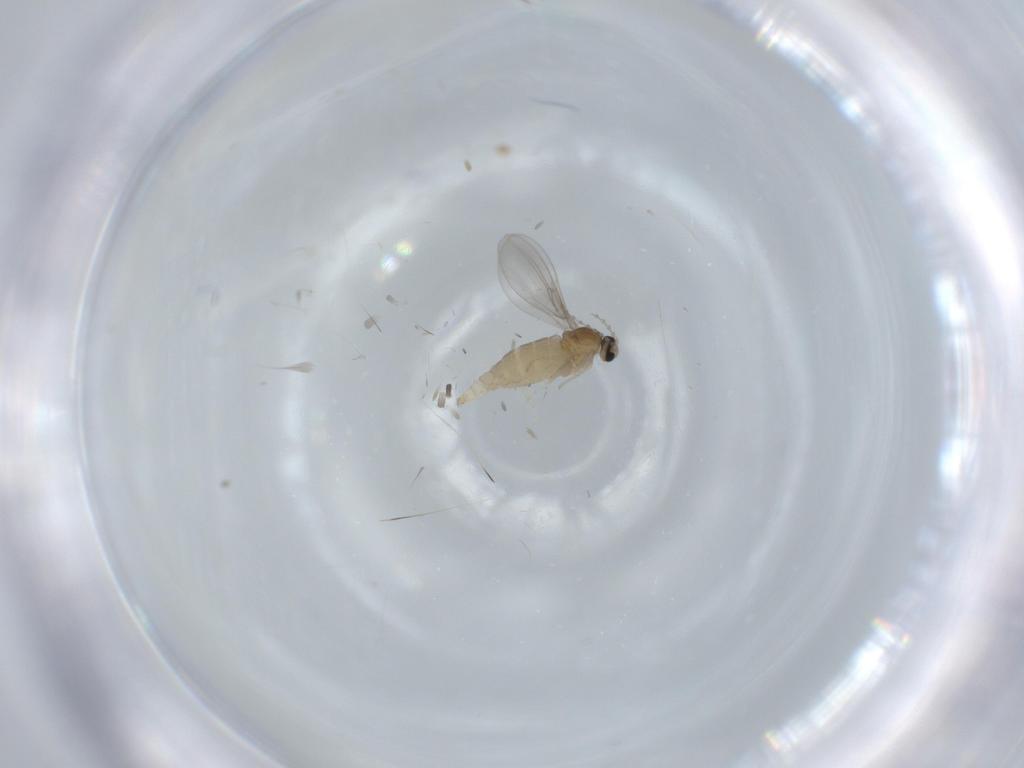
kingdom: Animalia
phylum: Arthropoda
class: Insecta
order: Diptera
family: Cecidomyiidae
